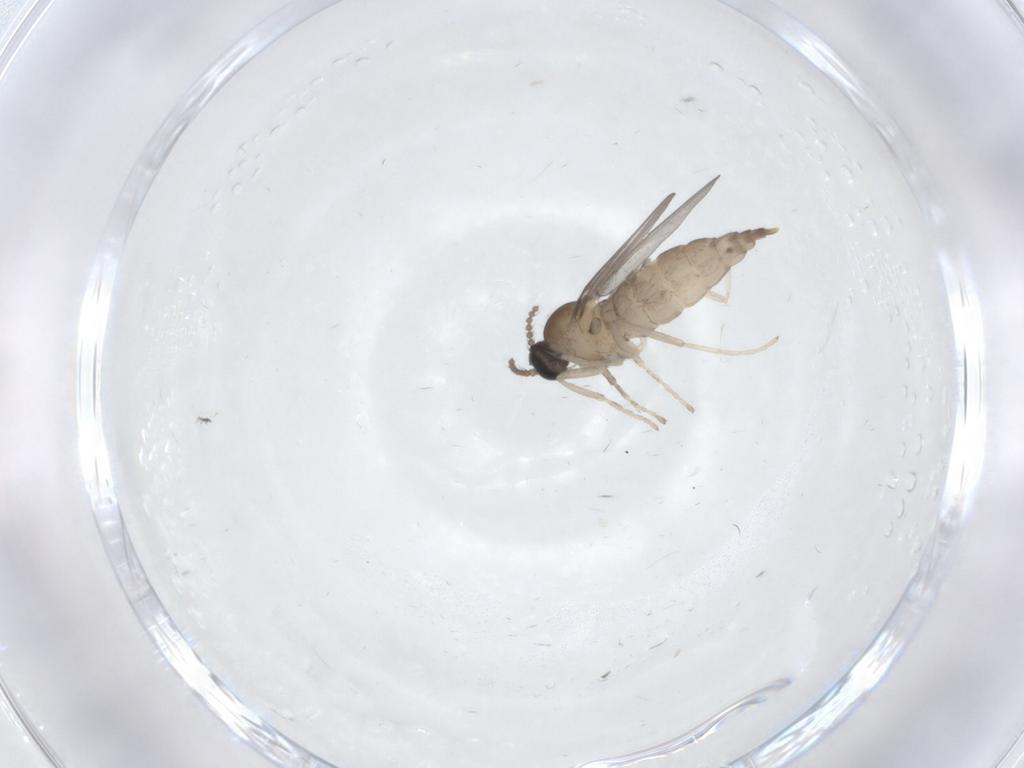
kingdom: Animalia
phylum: Arthropoda
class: Insecta
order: Diptera
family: Cecidomyiidae
